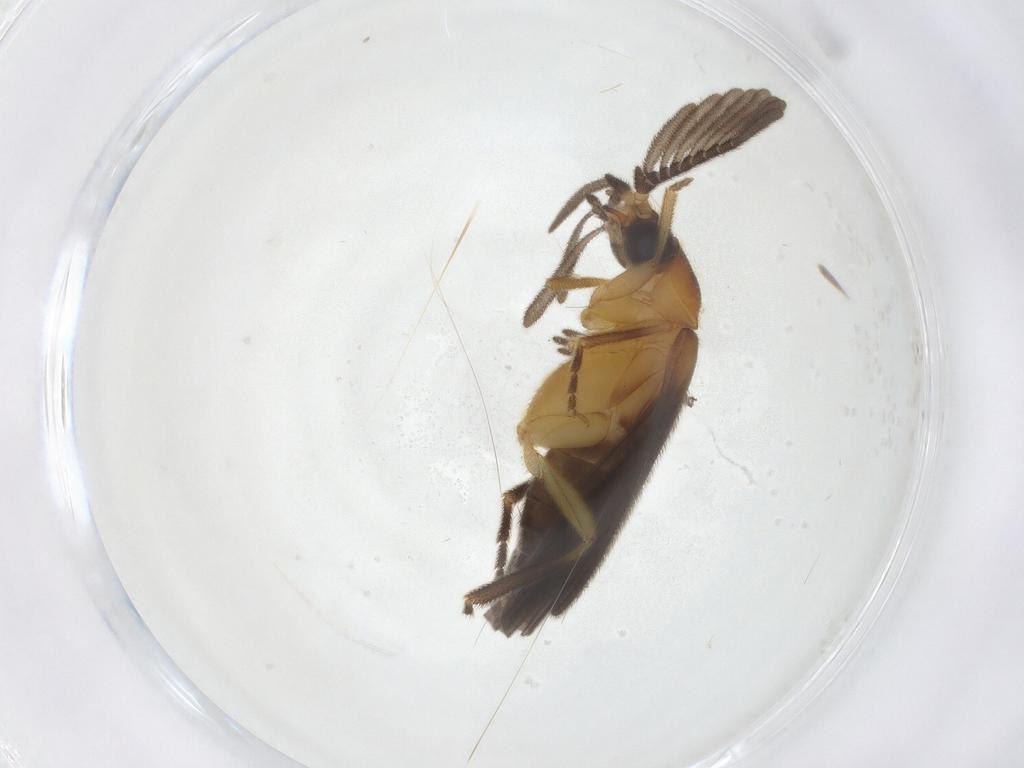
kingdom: Animalia
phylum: Arthropoda
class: Insecta
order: Coleoptera
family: Lampyridae
